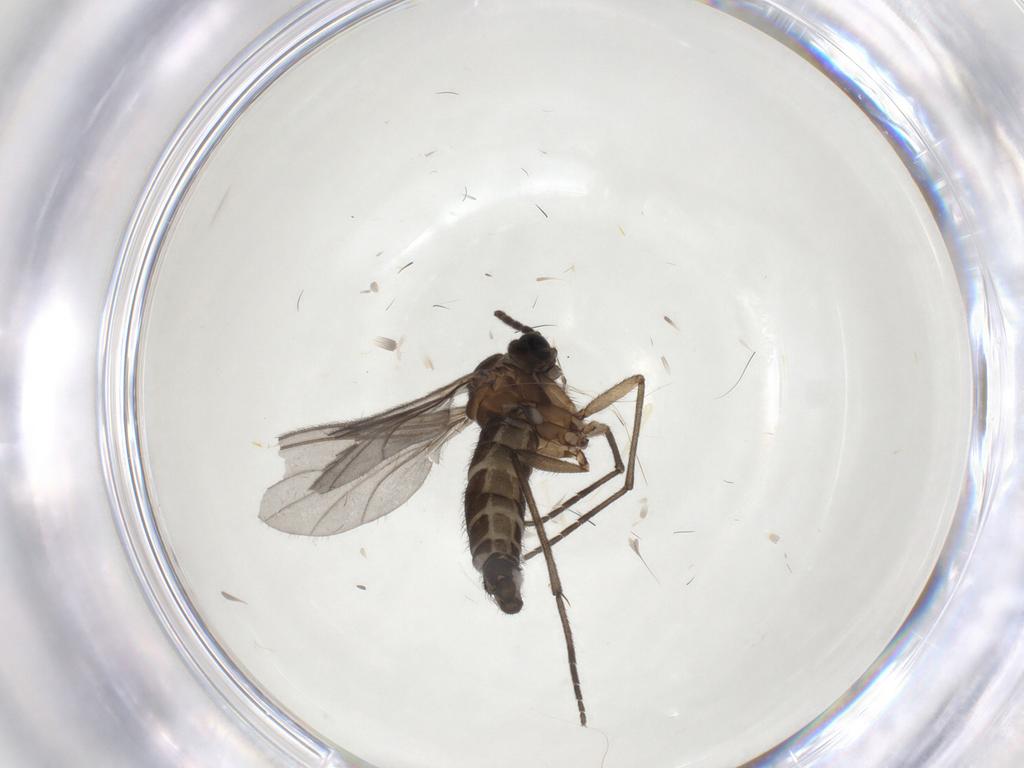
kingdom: Animalia
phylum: Arthropoda
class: Insecta
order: Diptera
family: Sciaridae
